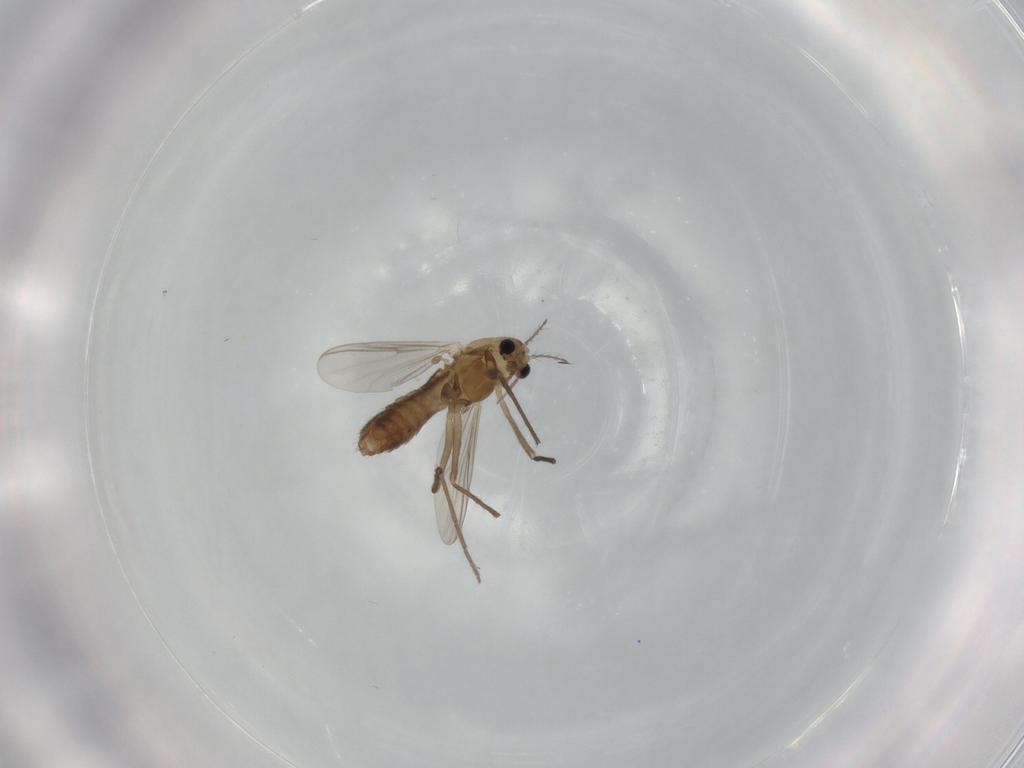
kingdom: Animalia
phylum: Arthropoda
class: Insecta
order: Diptera
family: Chironomidae
